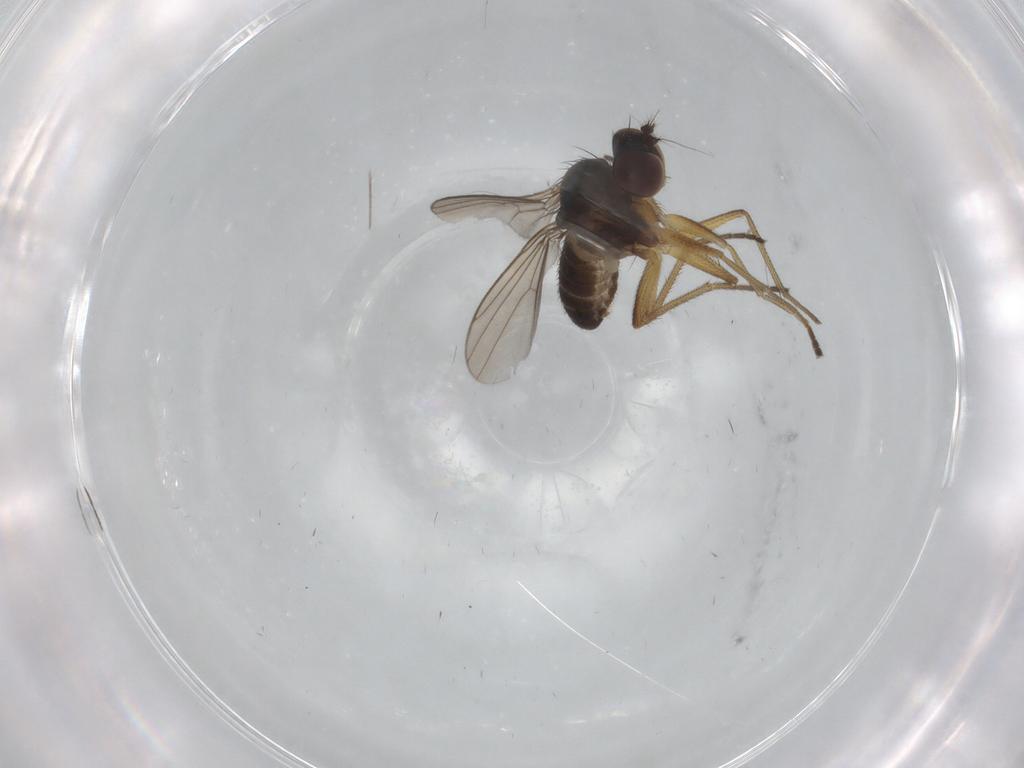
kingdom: Animalia
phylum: Arthropoda
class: Insecta
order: Diptera
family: Dolichopodidae
